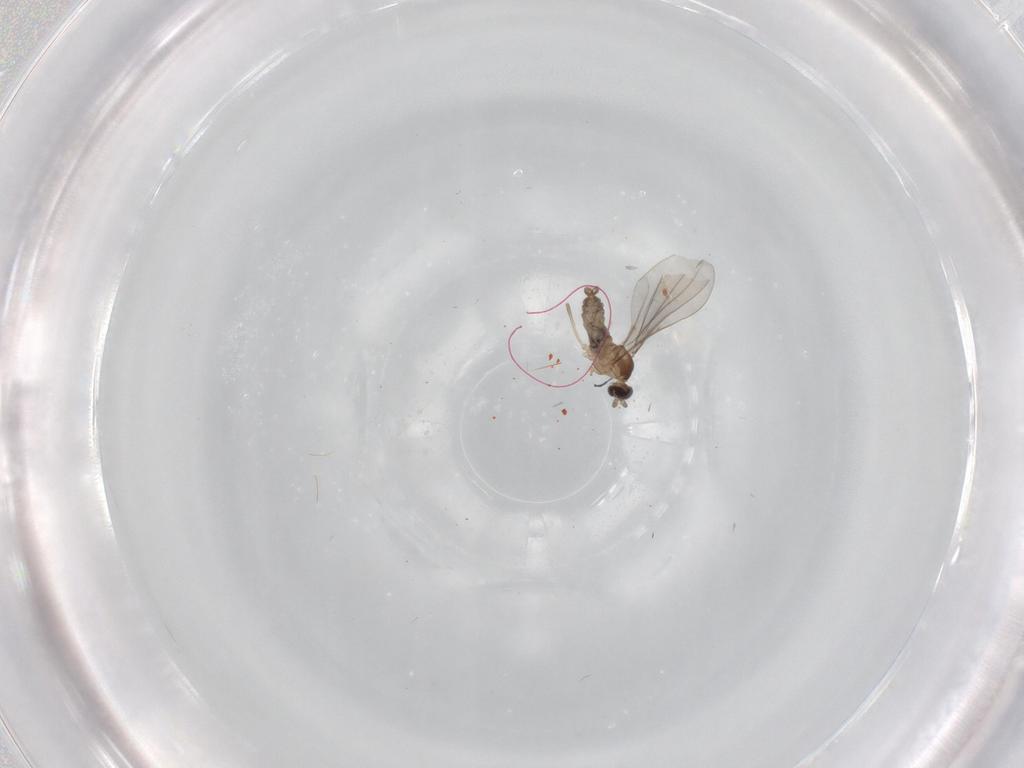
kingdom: Animalia
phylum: Arthropoda
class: Insecta
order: Diptera
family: Cecidomyiidae
